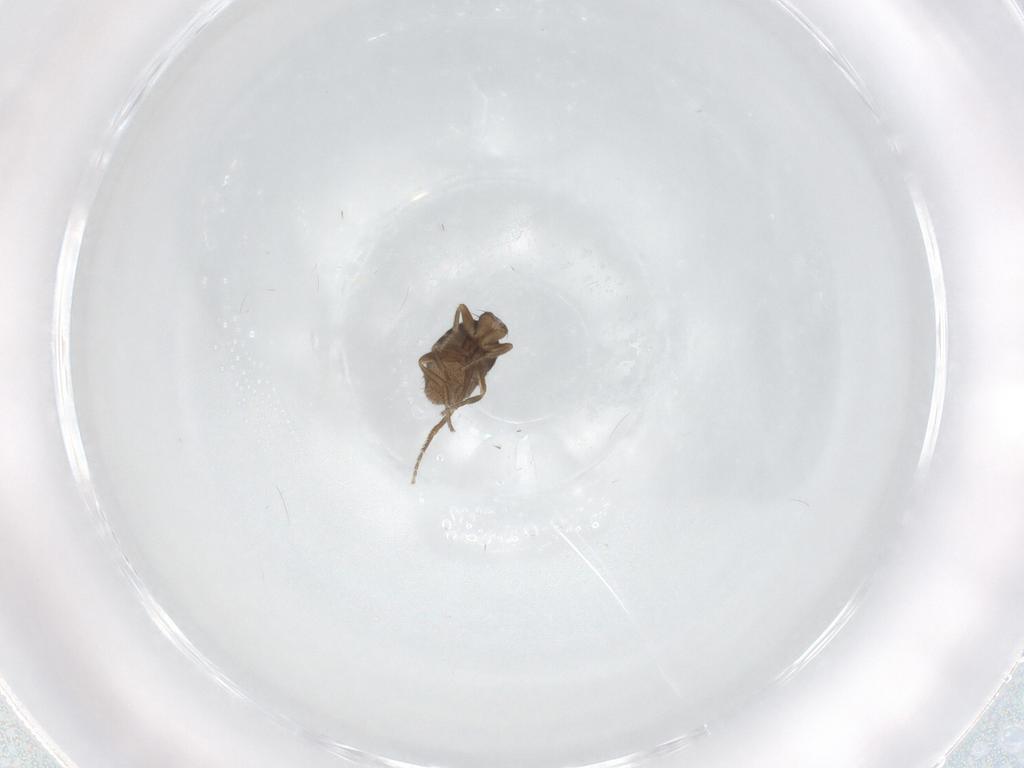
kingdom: Animalia
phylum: Arthropoda
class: Insecta
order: Diptera
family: Phoridae
